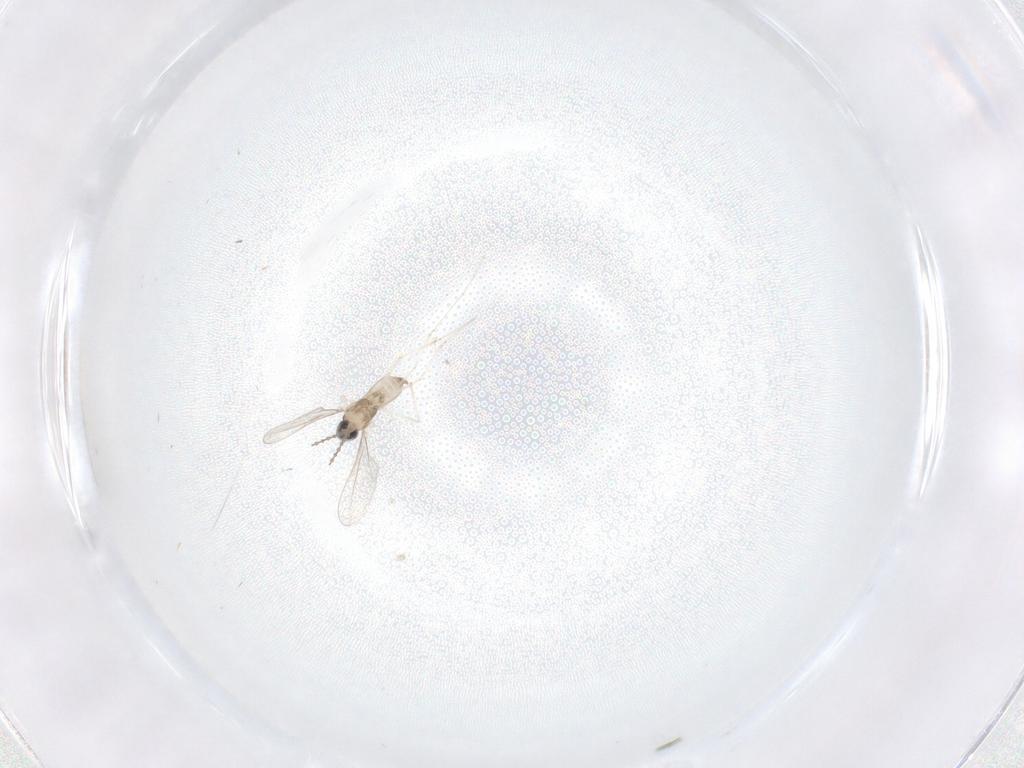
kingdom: Animalia
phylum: Arthropoda
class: Insecta
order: Diptera
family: Cecidomyiidae
